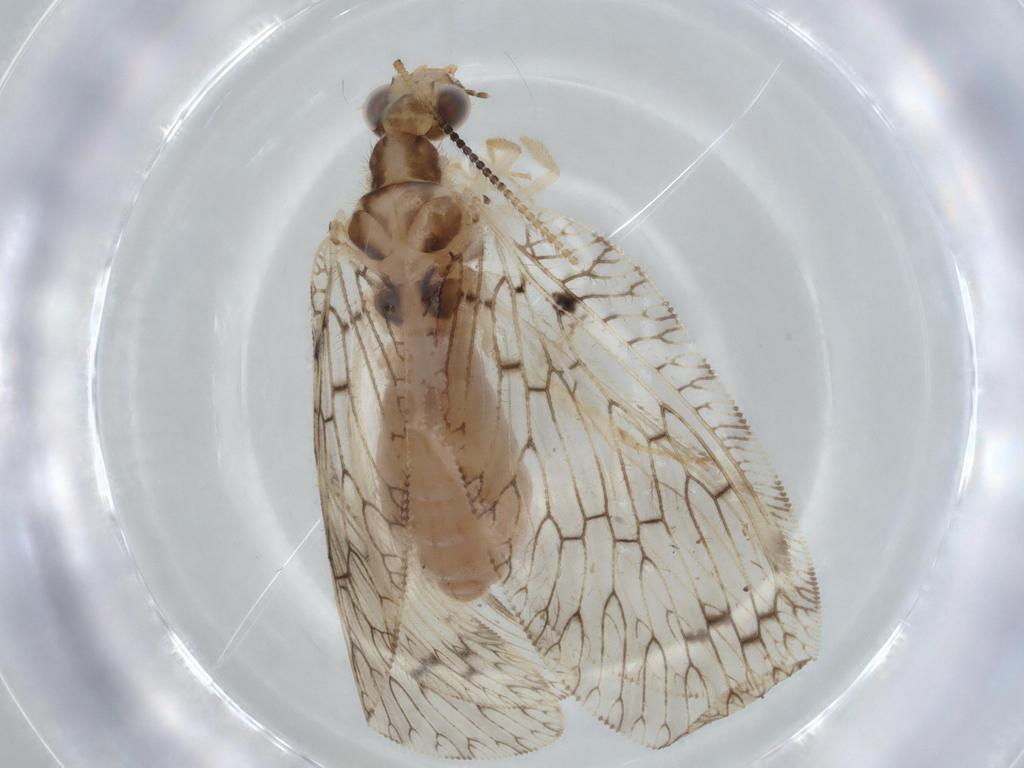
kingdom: Animalia
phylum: Arthropoda
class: Insecta
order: Neuroptera
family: Hemerobiidae
